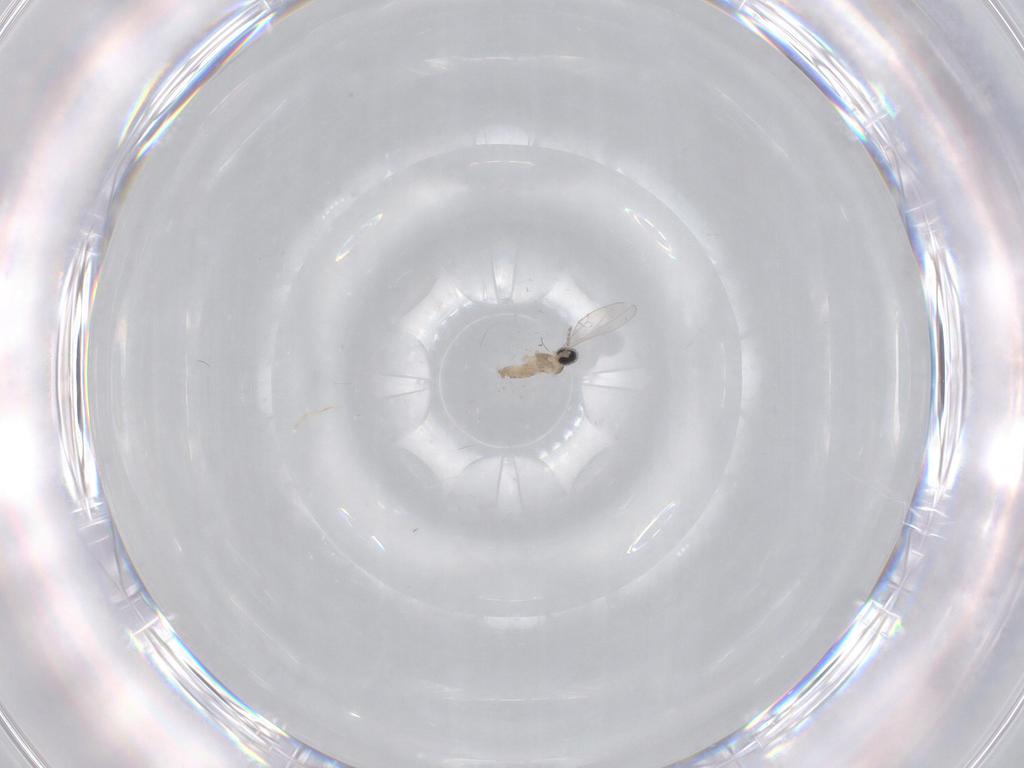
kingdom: Animalia
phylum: Arthropoda
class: Insecta
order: Diptera
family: Cecidomyiidae
